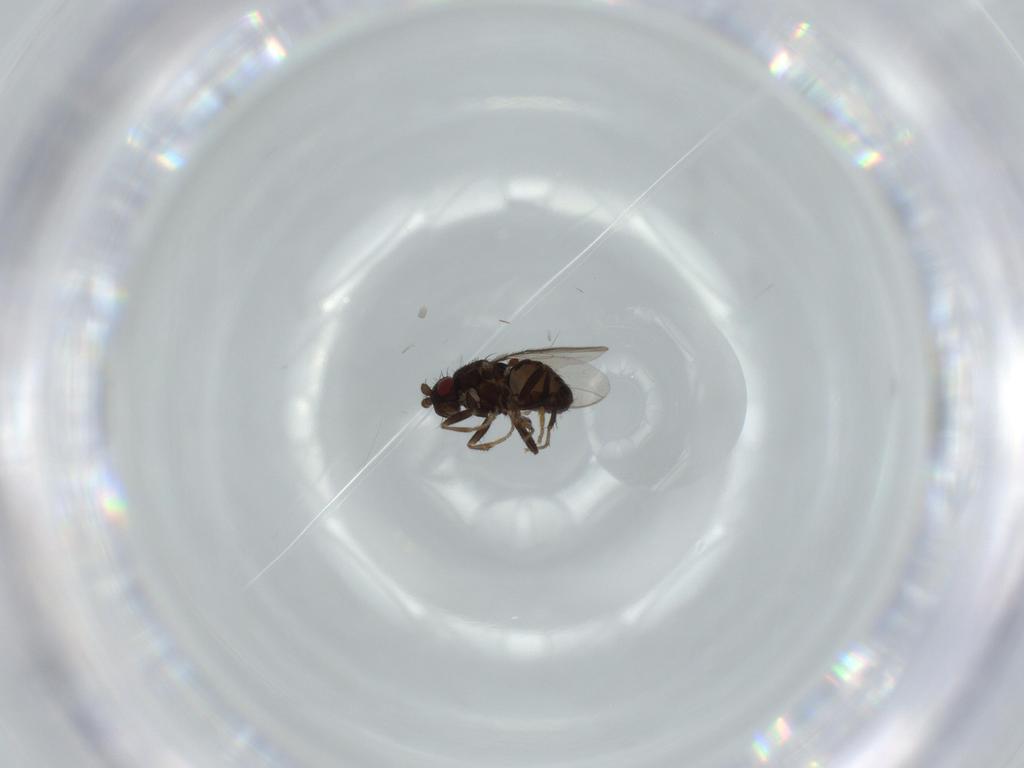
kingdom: Animalia
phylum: Arthropoda
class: Insecta
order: Diptera
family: Sphaeroceridae
